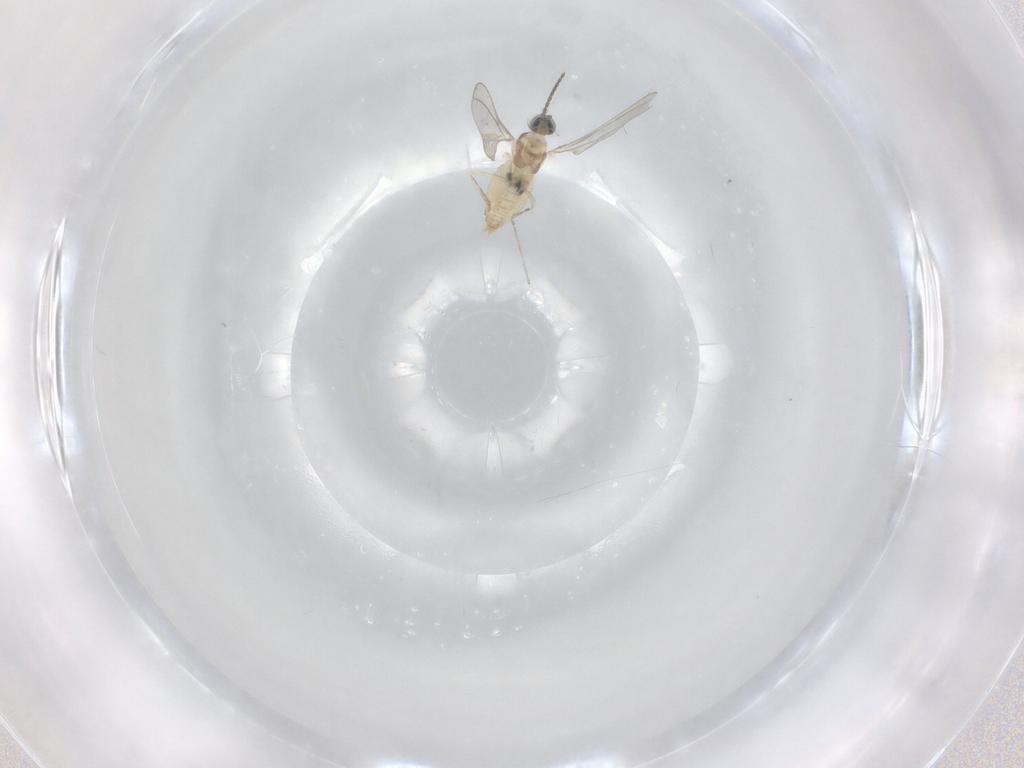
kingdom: Animalia
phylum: Arthropoda
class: Insecta
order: Diptera
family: Cecidomyiidae
